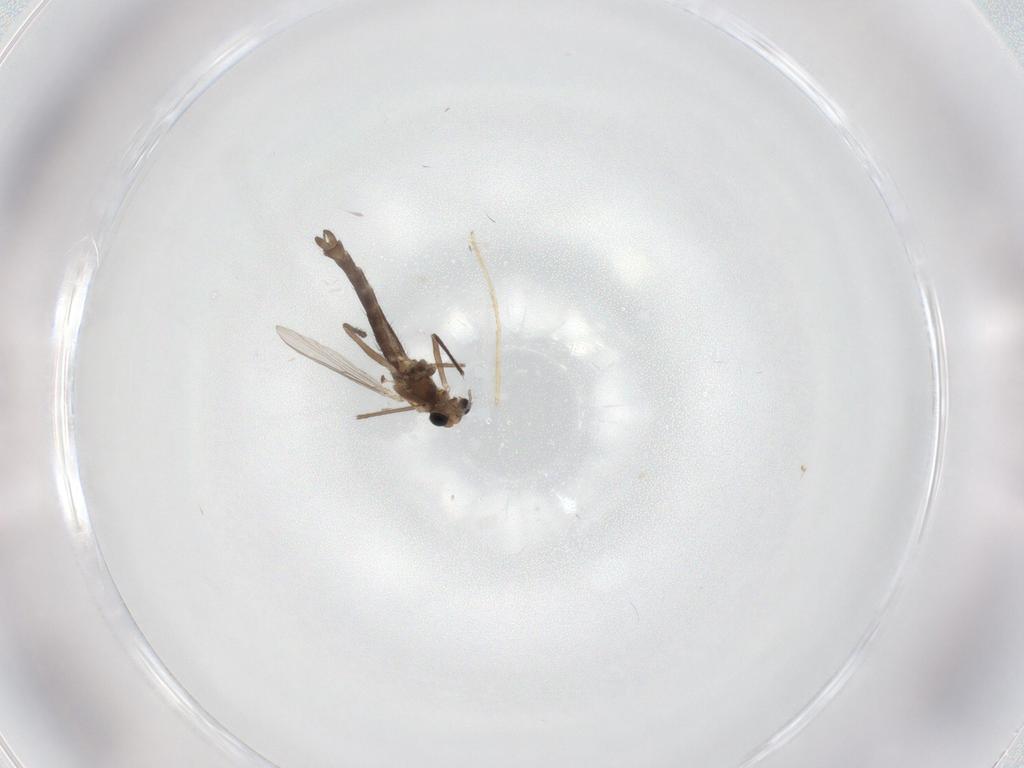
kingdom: Animalia
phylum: Arthropoda
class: Insecta
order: Diptera
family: Chironomidae
